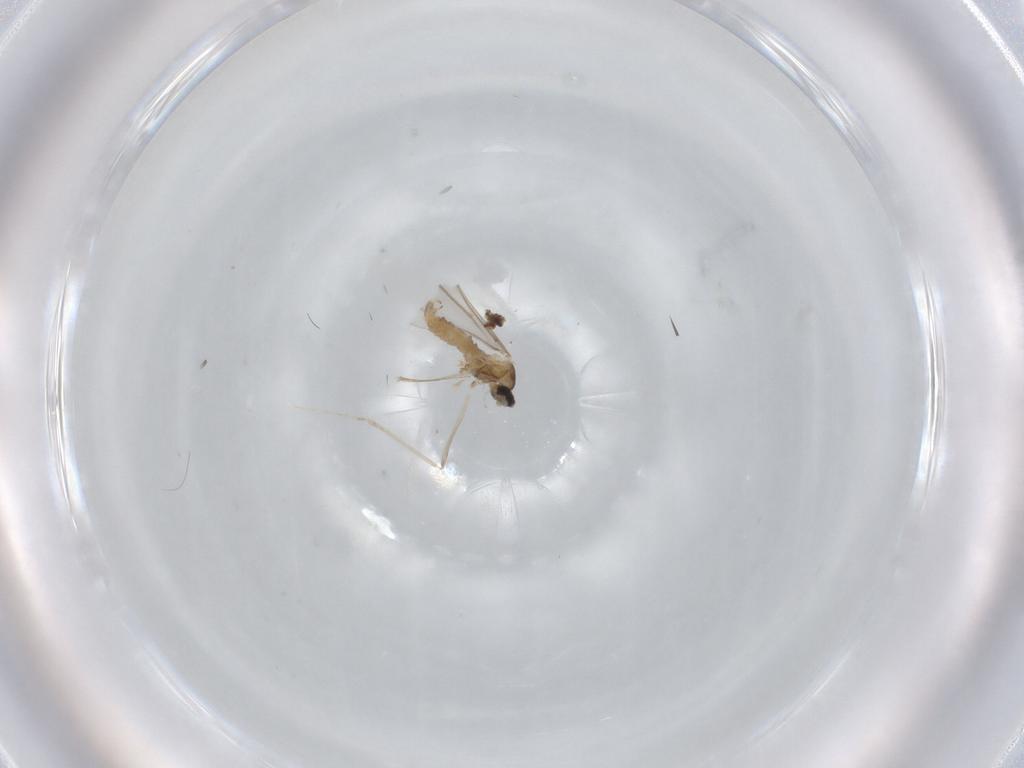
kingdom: Animalia
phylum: Arthropoda
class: Insecta
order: Diptera
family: Cecidomyiidae
